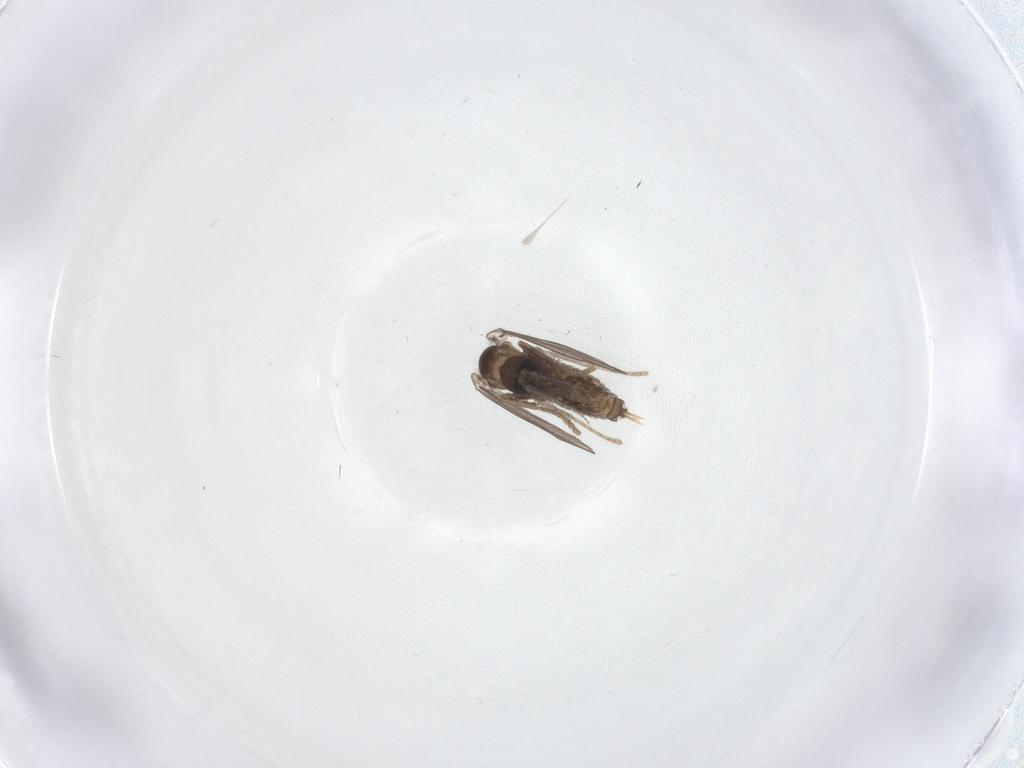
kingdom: Animalia
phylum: Arthropoda
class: Insecta
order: Diptera
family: Psychodidae
